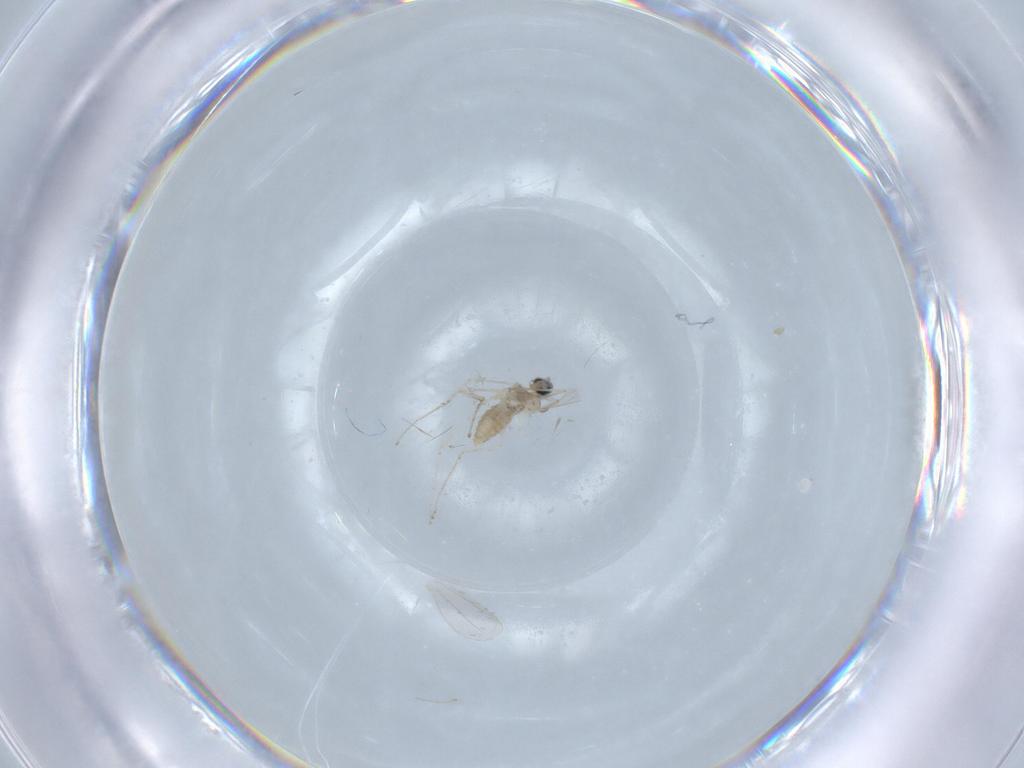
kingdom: Animalia
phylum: Arthropoda
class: Insecta
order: Diptera
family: Cecidomyiidae
